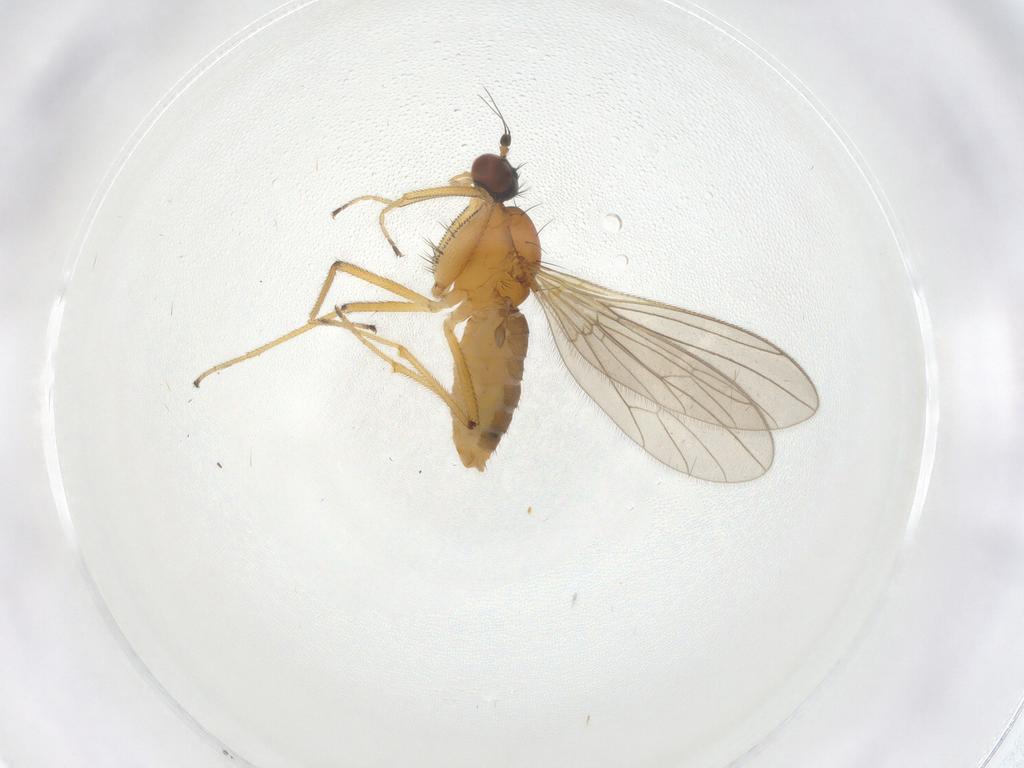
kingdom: Animalia
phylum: Arthropoda
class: Insecta
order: Diptera
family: Empididae
